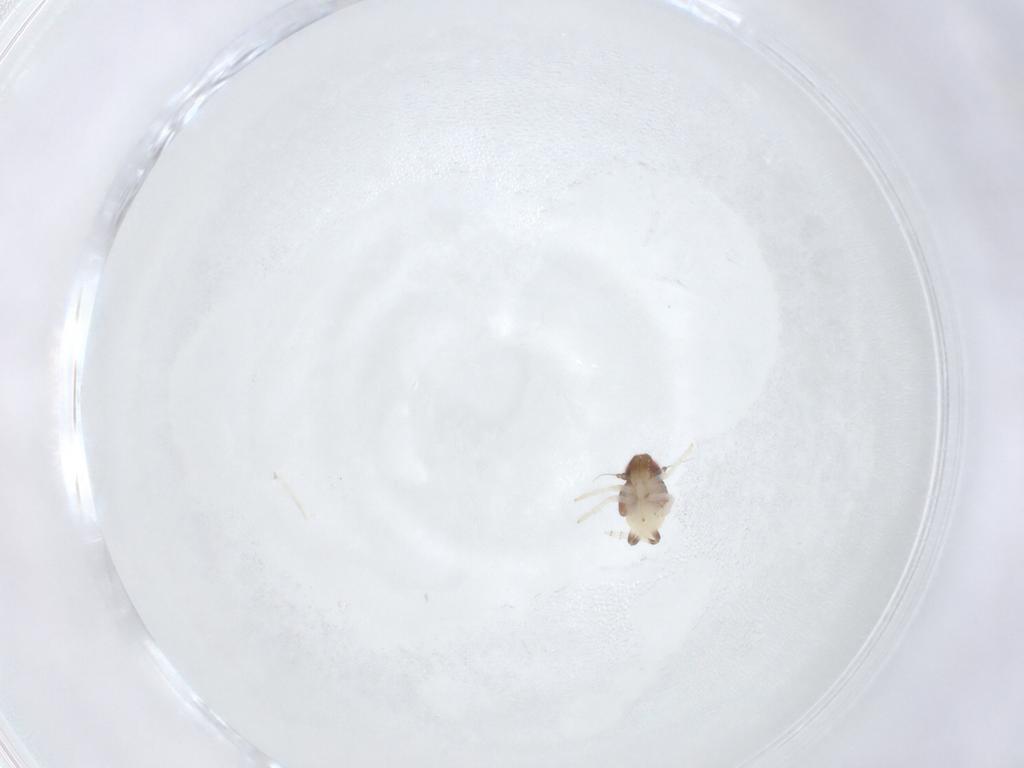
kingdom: Animalia
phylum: Arthropoda
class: Insecta
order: Hemiptera
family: Nogodinidae
